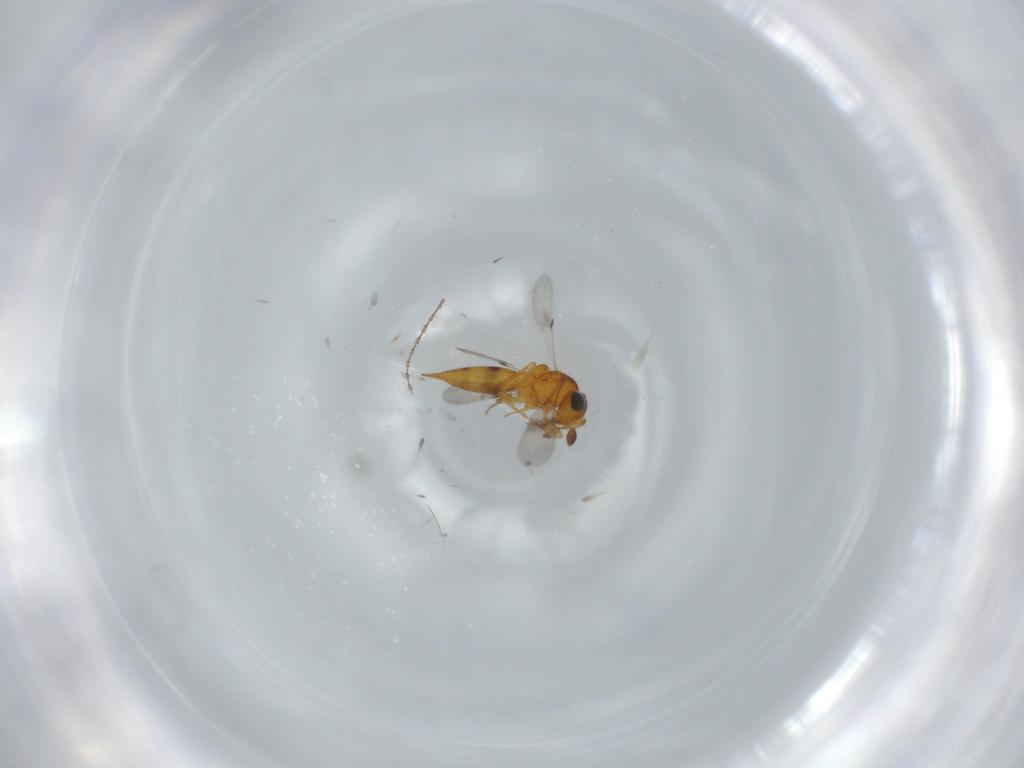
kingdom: Animalia
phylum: Arthropoda
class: Insecta
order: Hymenoptera
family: Scelionidae
